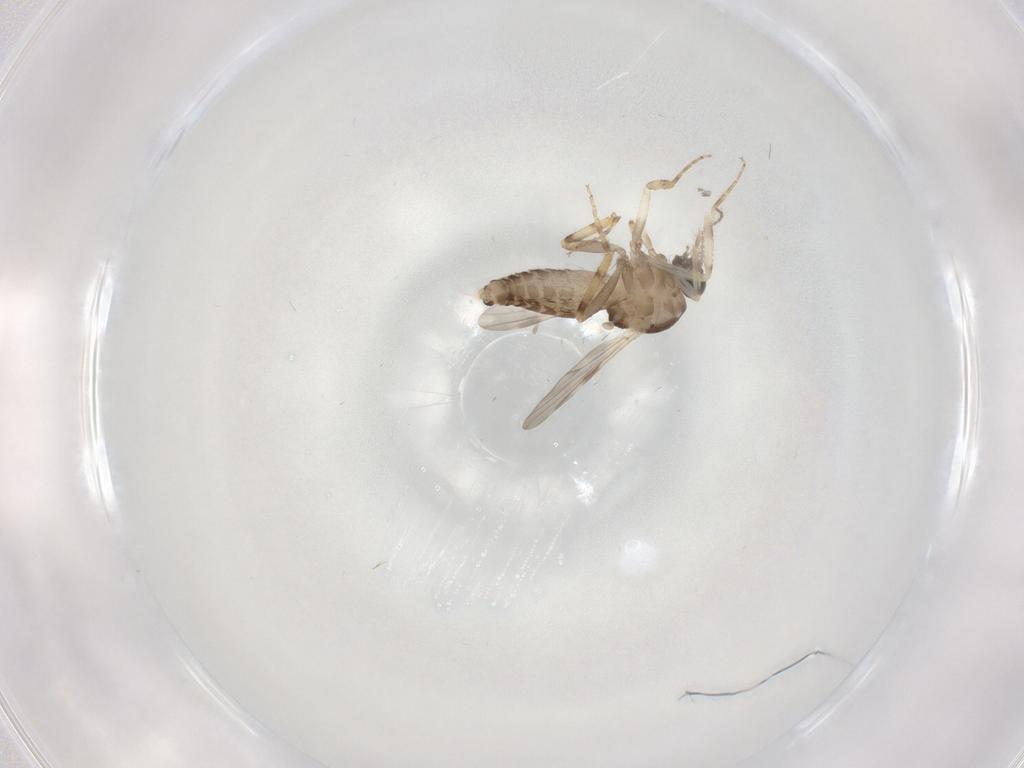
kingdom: Animalia
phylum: Arthropoda
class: Insecta
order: Diptera
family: Ceratopogonidae
